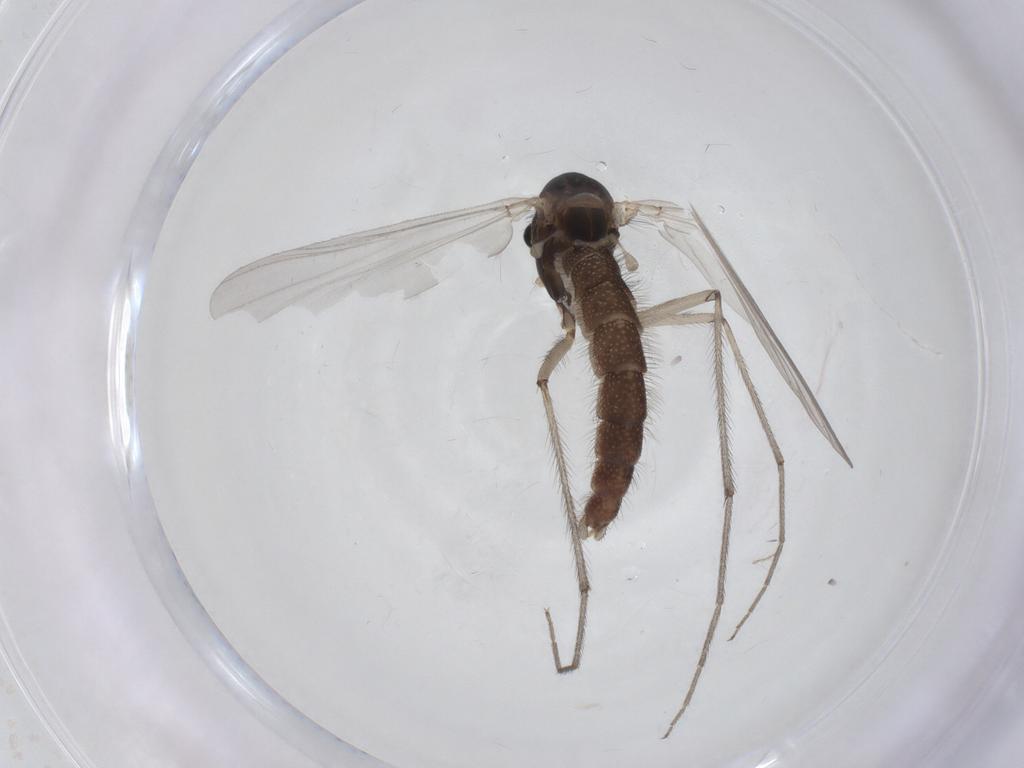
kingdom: Animalia
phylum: Arthropoda
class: Insecta
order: Diptera
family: Chironomidae
